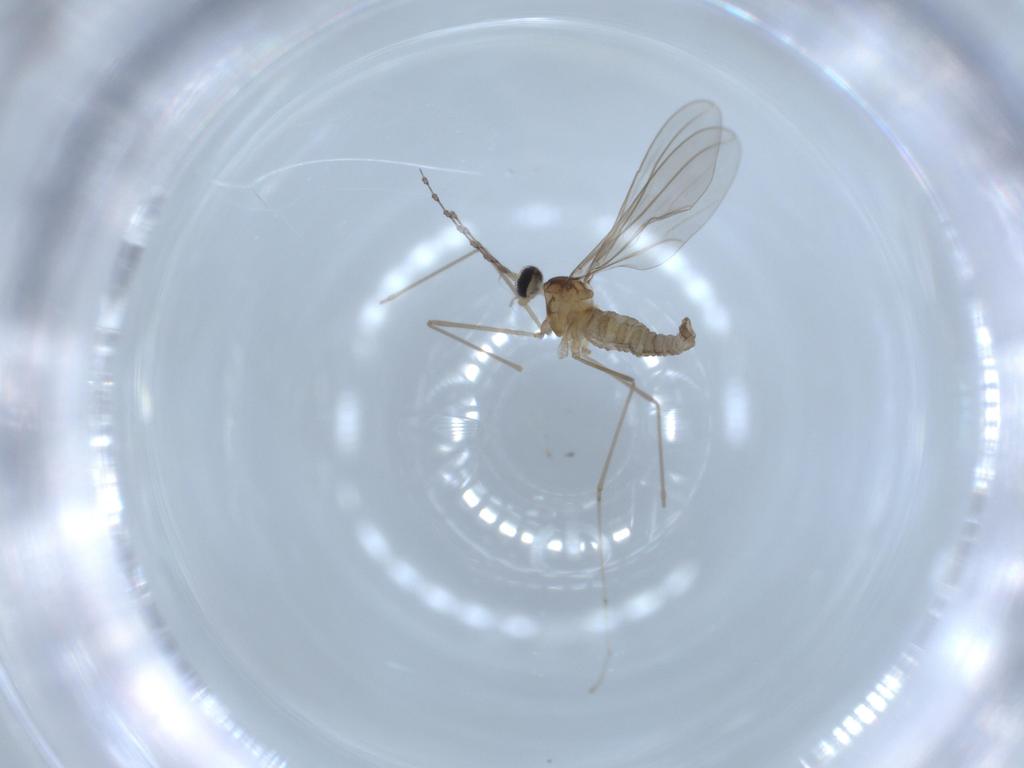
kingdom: Animalia
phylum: Arthropoda
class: Insecta
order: Diptera
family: Cecidomyiidae
